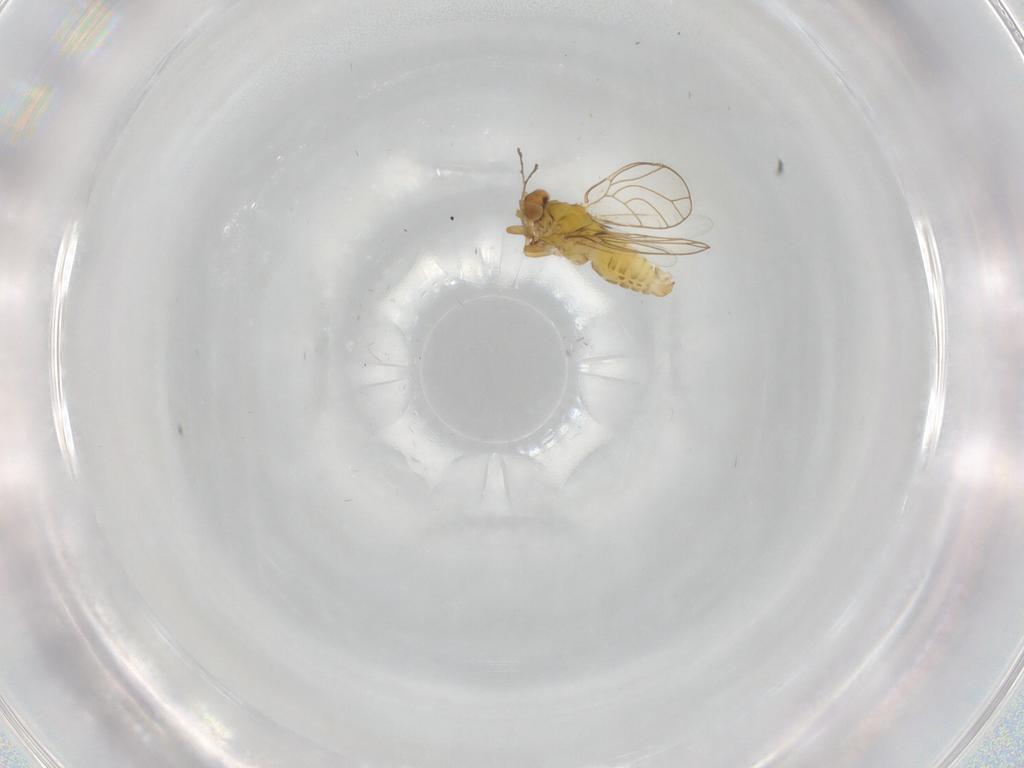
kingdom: Animalia
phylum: Arthropoda
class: Insecta
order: Hemiptera
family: Psylloidea_incertae_sedis
